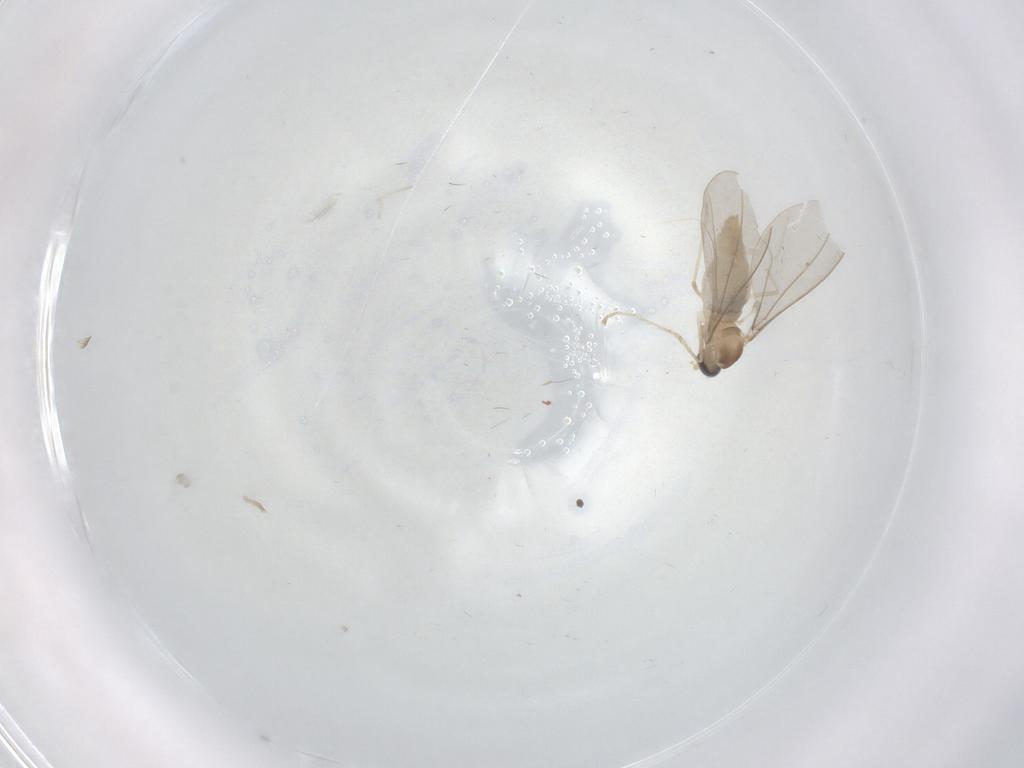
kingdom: Animalia
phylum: Arthropoda
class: Insecta
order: Diptera
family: Cecidomyiidae
